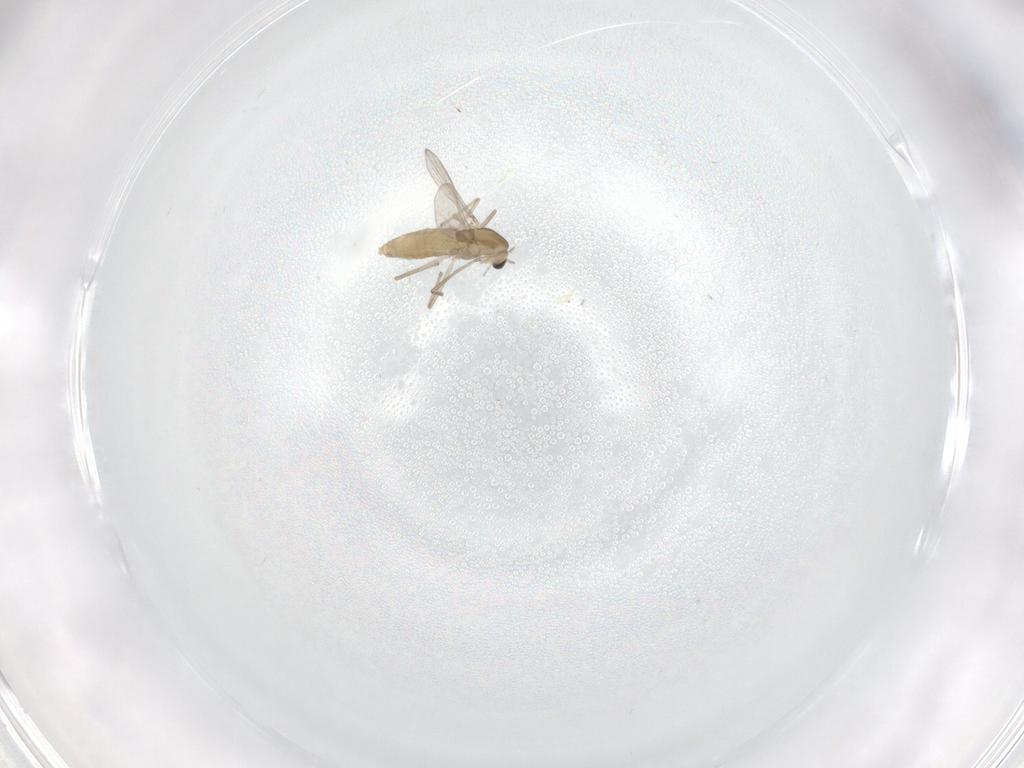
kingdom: Animalia
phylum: Arthropoda
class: Insecta
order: Diptera
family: Chironomidae
